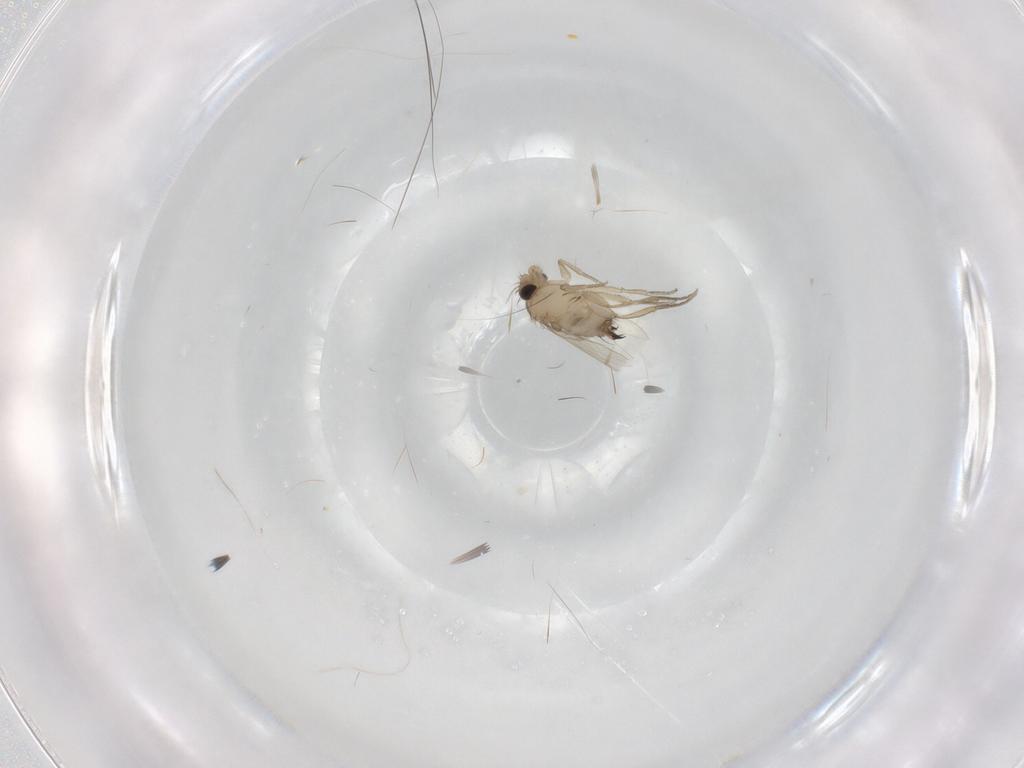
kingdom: Animalia
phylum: Arthropoda
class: Insecta
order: Diptera
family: Phoridae
